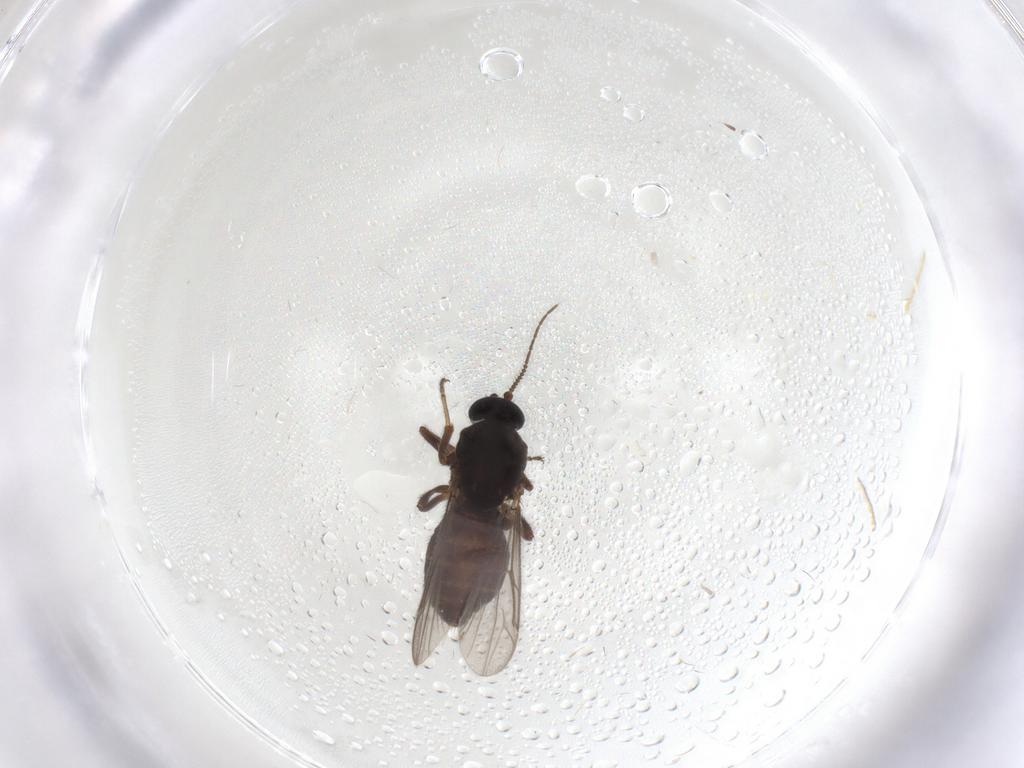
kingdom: Animalia
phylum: Arthropoda
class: Insecta
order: Diptera
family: Ceratopogonidae
